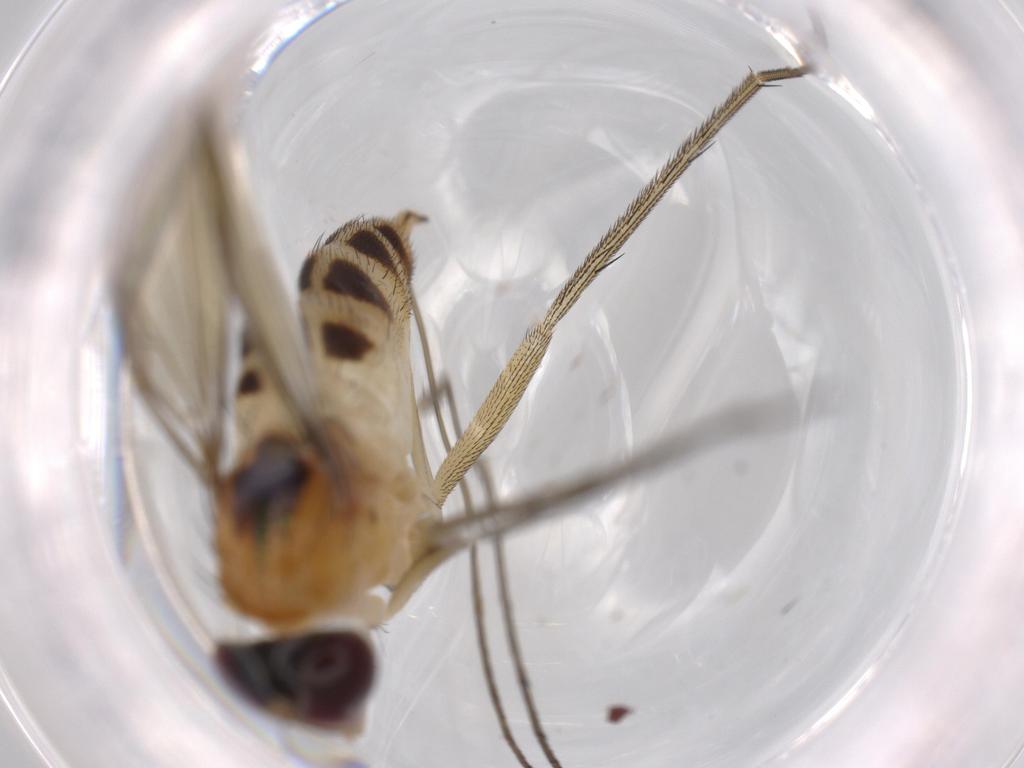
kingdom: Animalia
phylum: Arthropoda
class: Insecta
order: Diptera
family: Dolichopodidae
